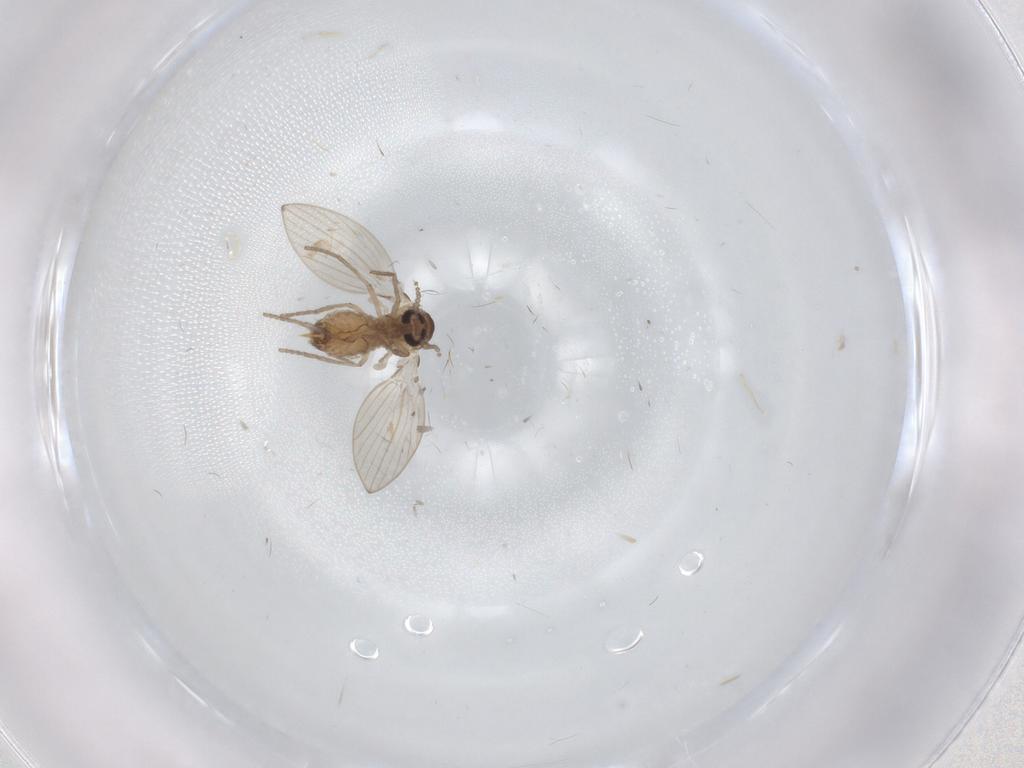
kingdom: Animalia
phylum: Arthropoda
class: Insecta
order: Diptera
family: Psychodidae
